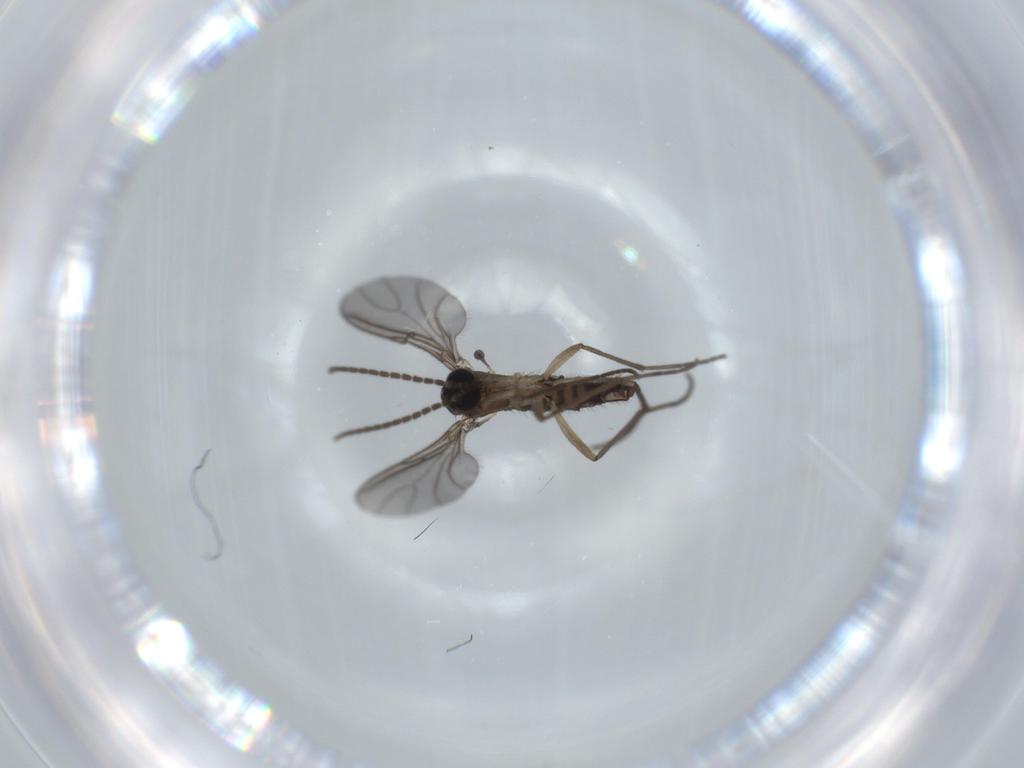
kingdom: Animalia
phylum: Arthropoda
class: Insecta
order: Diptera
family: Sciaridae
